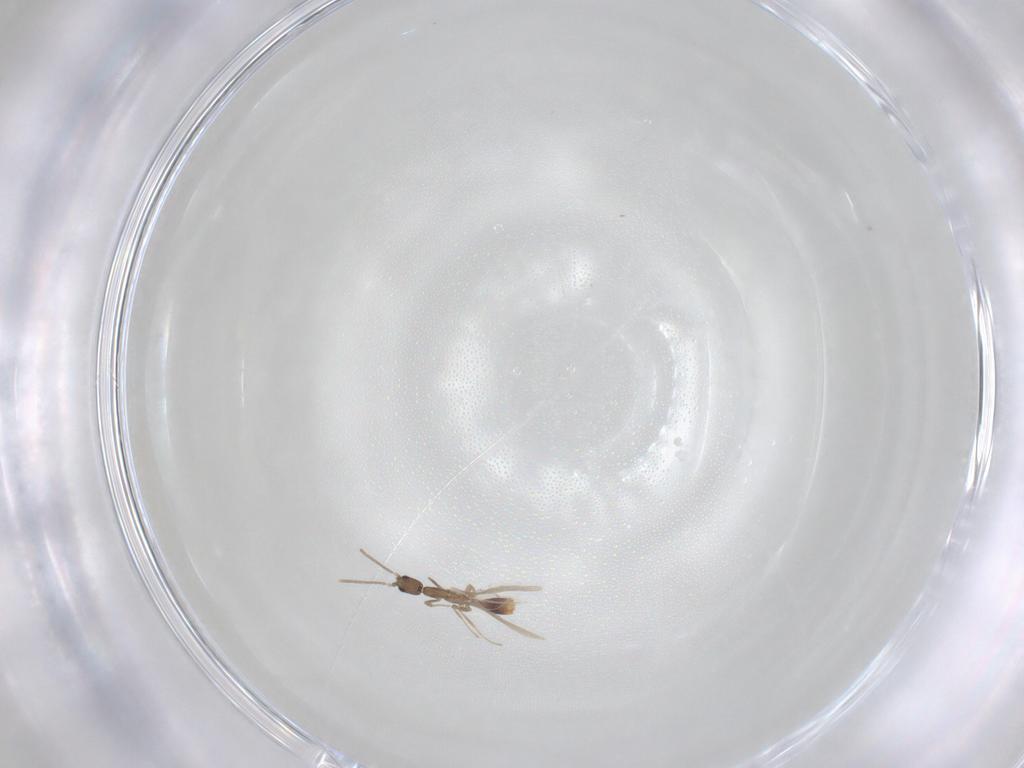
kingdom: Animalia
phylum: Arthropoda
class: Insecta
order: Hymenoptera
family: Formicidae
